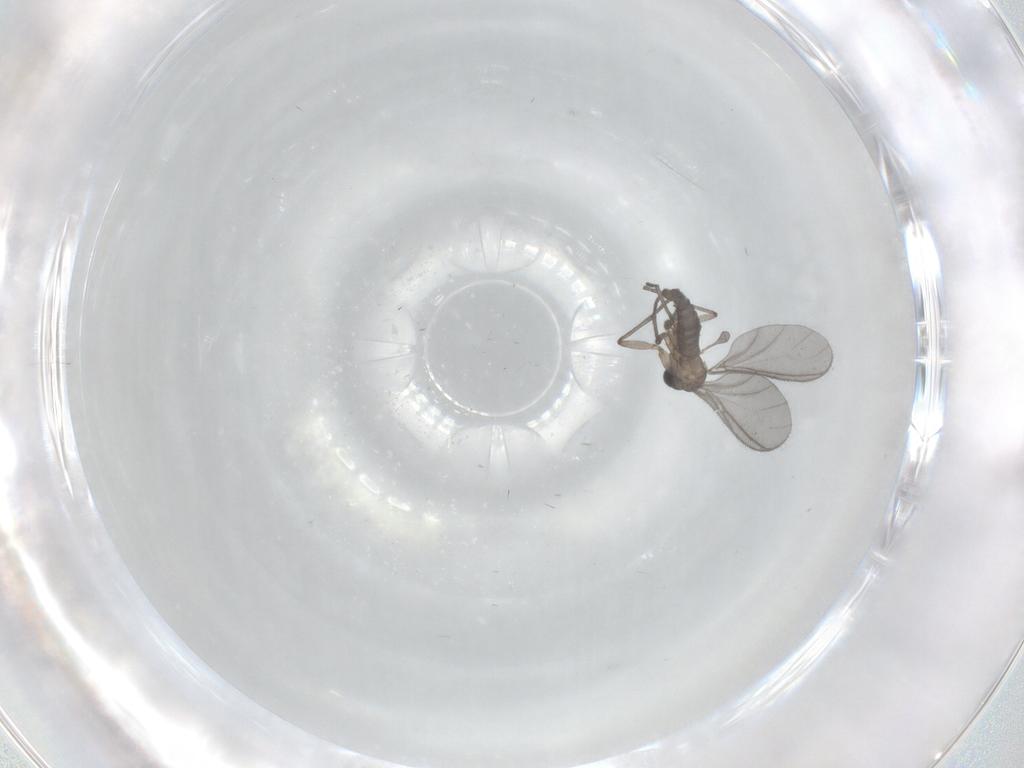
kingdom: Animalia
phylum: Arthropoda
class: Insecta
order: Diptera
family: Sciaridae
